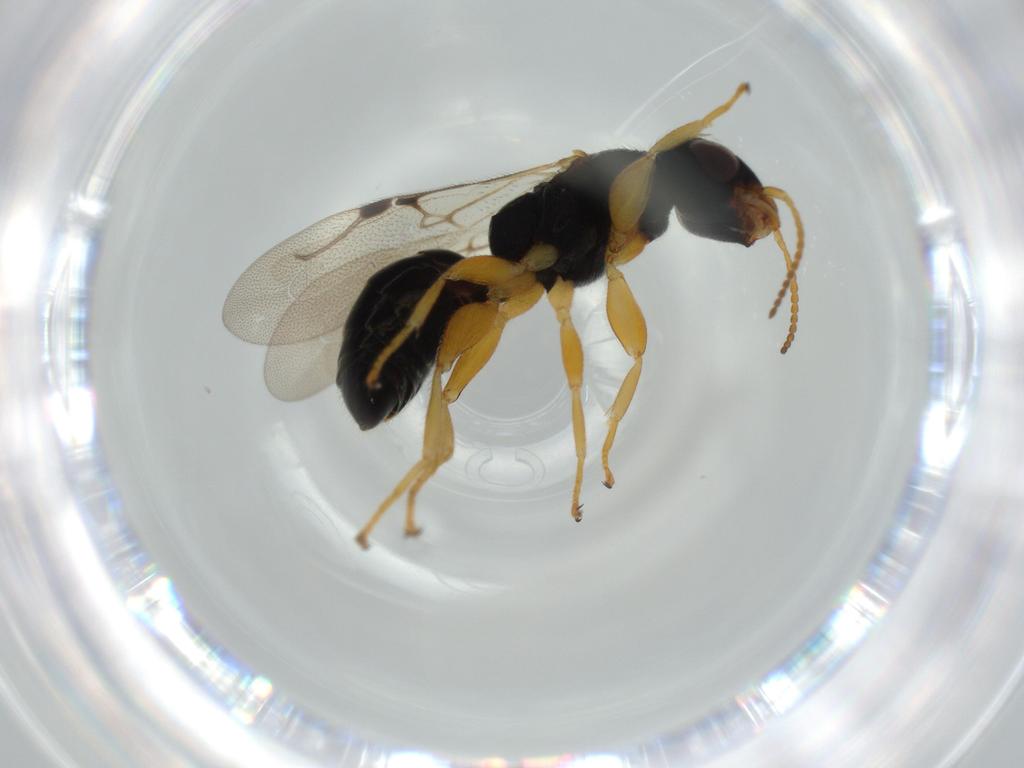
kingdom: Animalia
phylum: Arthropoda
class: Insecta
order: Hymenoptera
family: Bethylidae
